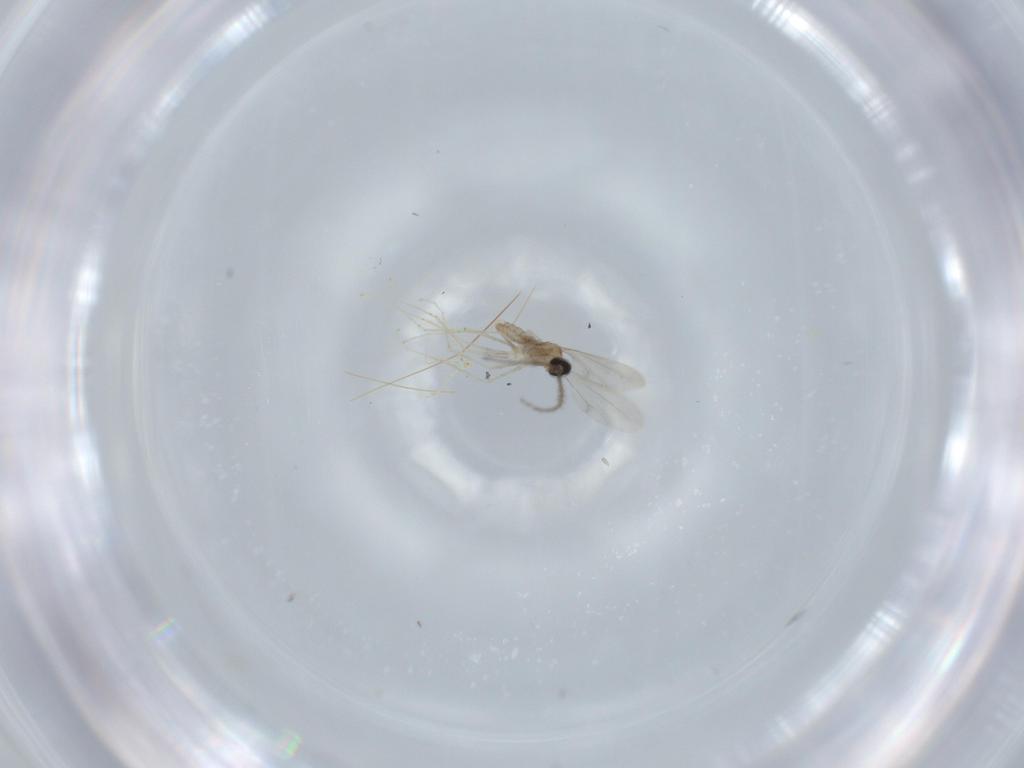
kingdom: Animalia
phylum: Arthropoda
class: Insecta
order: Diptera
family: Cecidomyiidae
